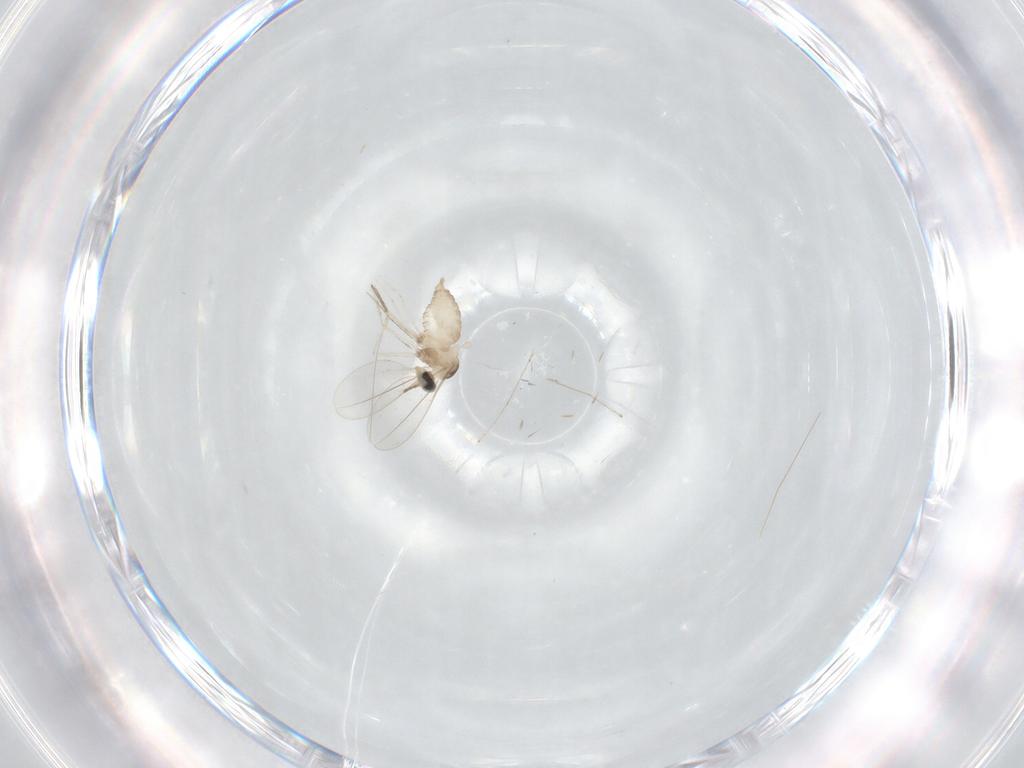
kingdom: Animalia
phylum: Arthropoda
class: Insecta
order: Diptera
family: Cecidomyiidae
